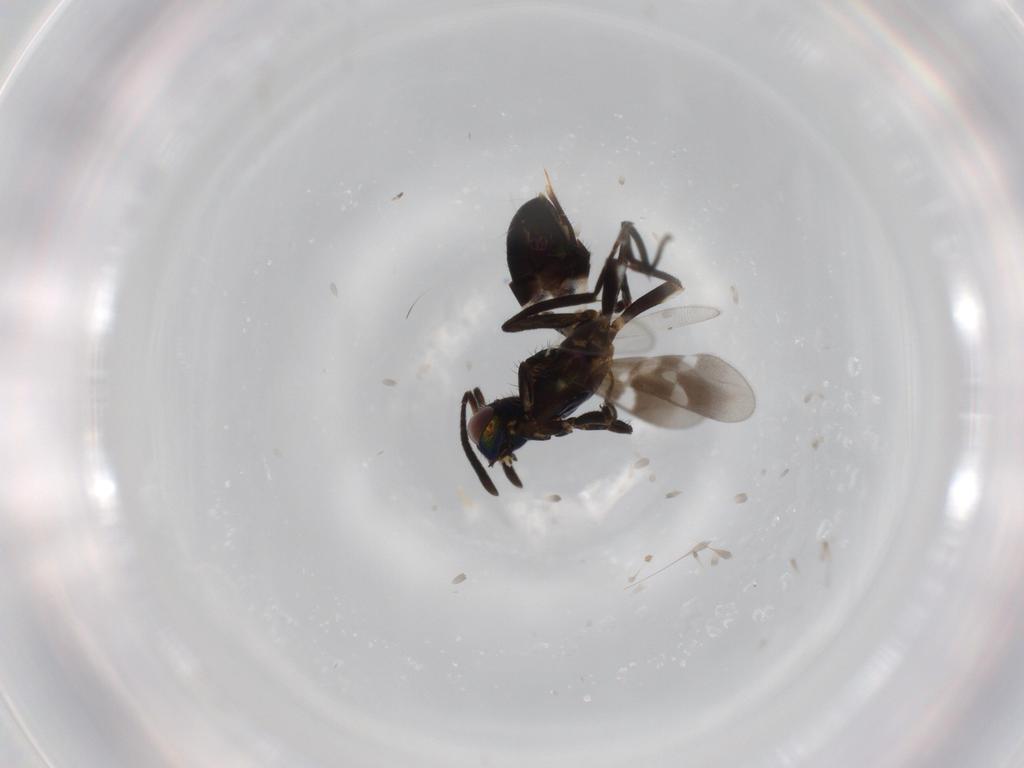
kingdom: Animalia
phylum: Arthropoda
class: Insecta
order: Hymenoptera
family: Eupelmidae
